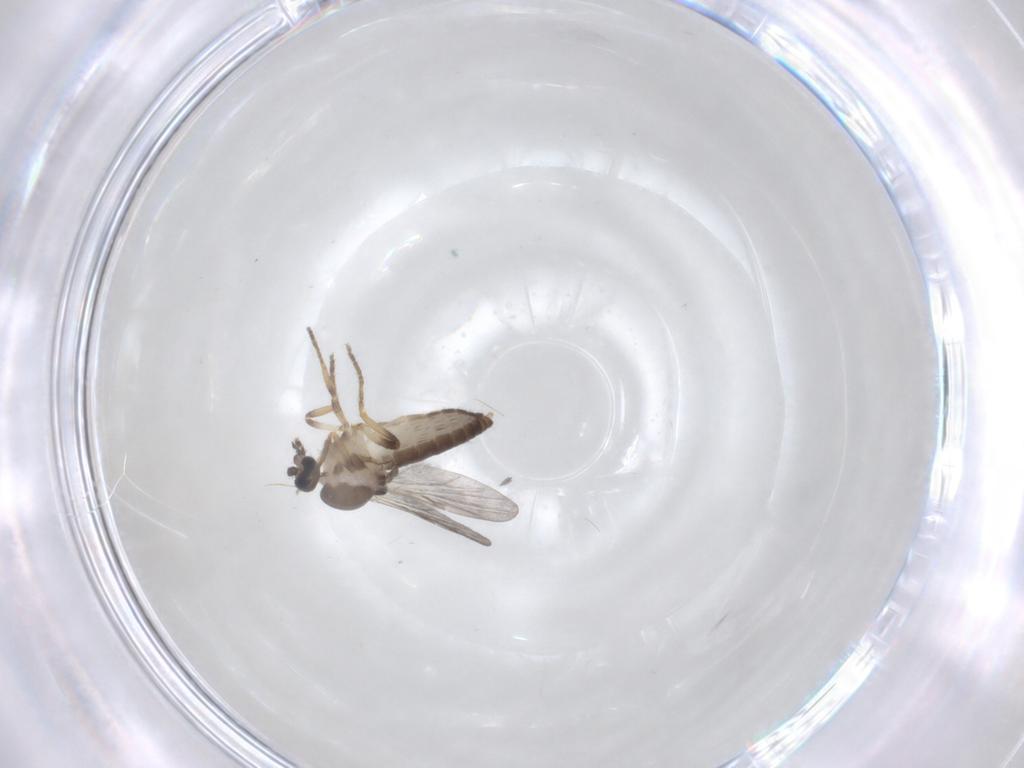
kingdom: Animalia
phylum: Arthropoda
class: Insecta
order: Diptera
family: Ceratopogonidae
